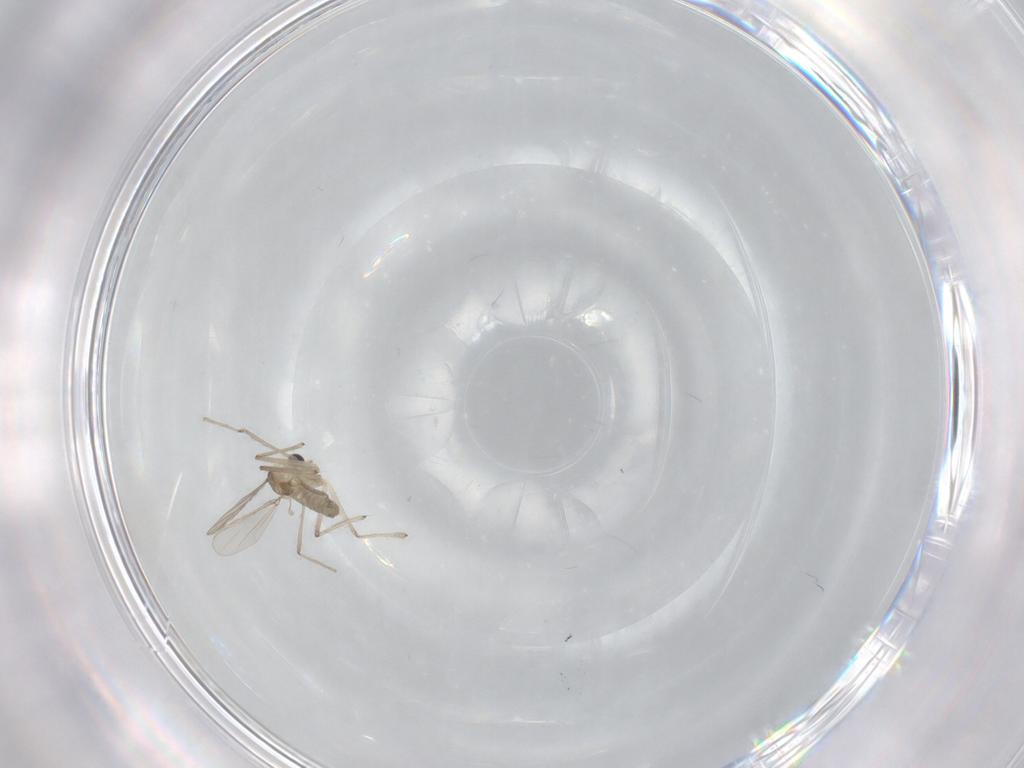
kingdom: Animalia
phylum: Arthropoda
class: Insecta
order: Diptera
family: Chironomidae
